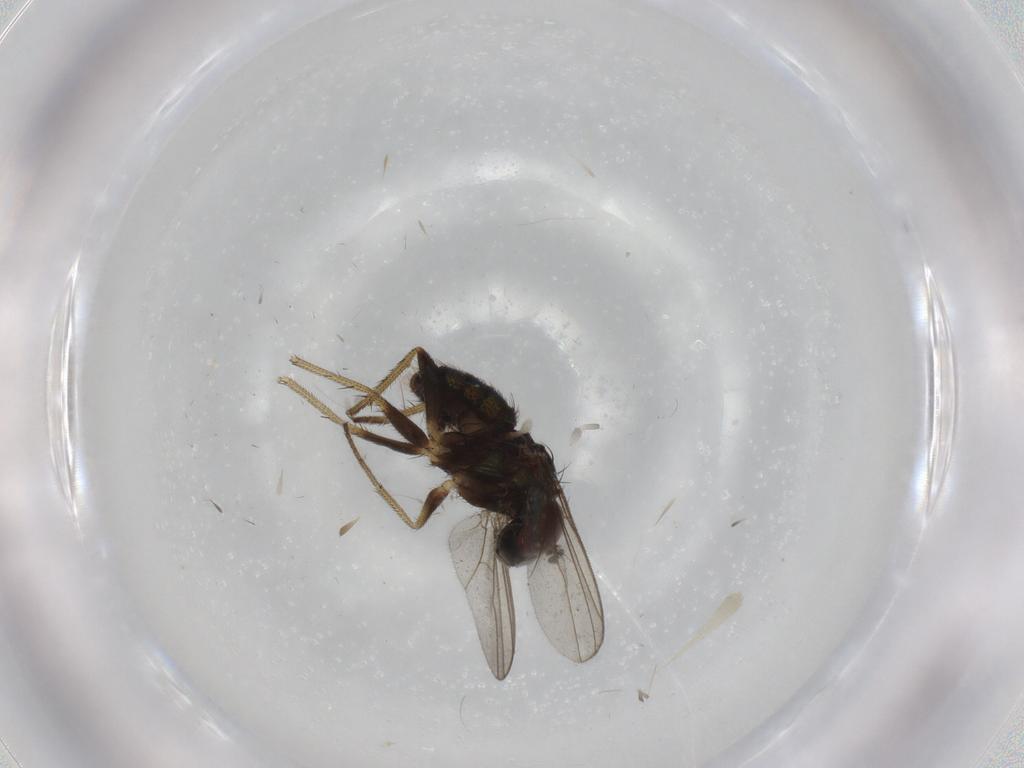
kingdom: Animalia
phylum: Arthropoda
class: Insecta
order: Diptera
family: Dolichopodidae
